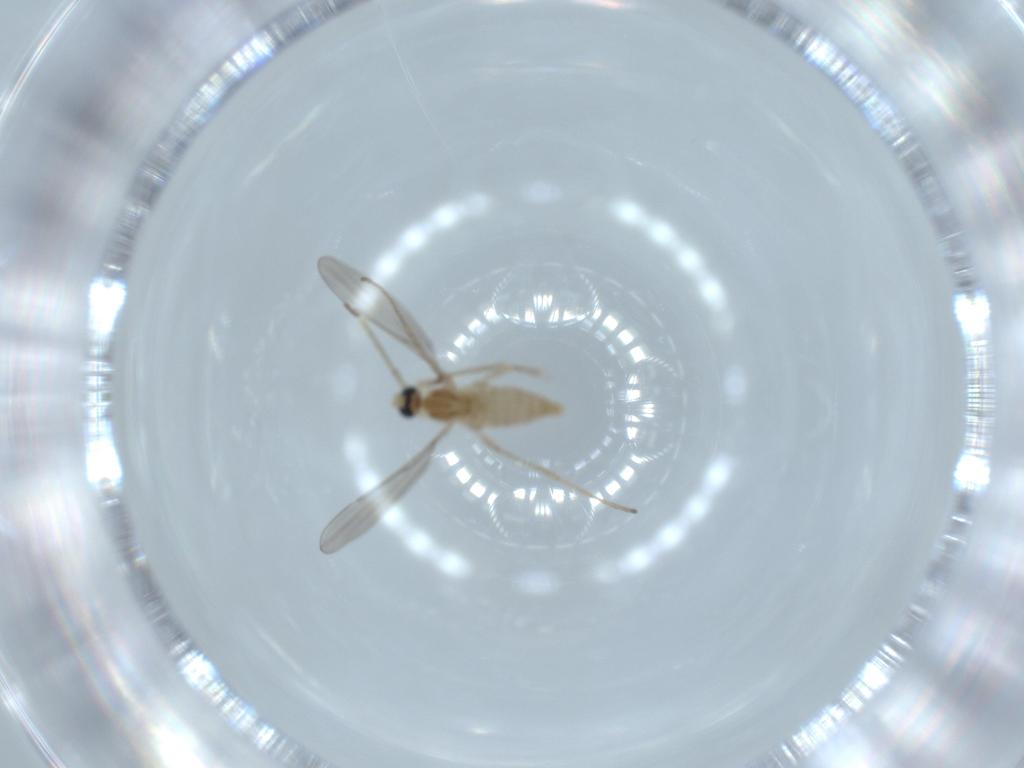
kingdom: Animalia
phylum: Arthropoda
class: Insecta
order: Diptera
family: Cecidomyiidae
